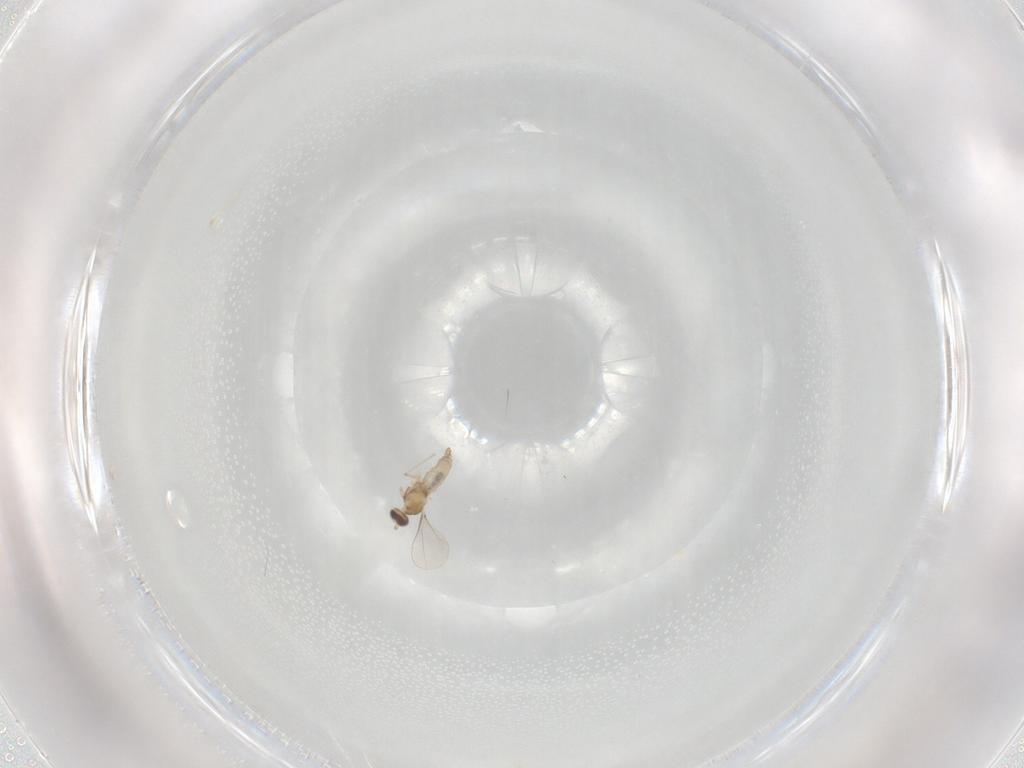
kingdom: Animalia
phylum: Arthropoda
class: Insecta
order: Diptera
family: Cecidomyiidae
